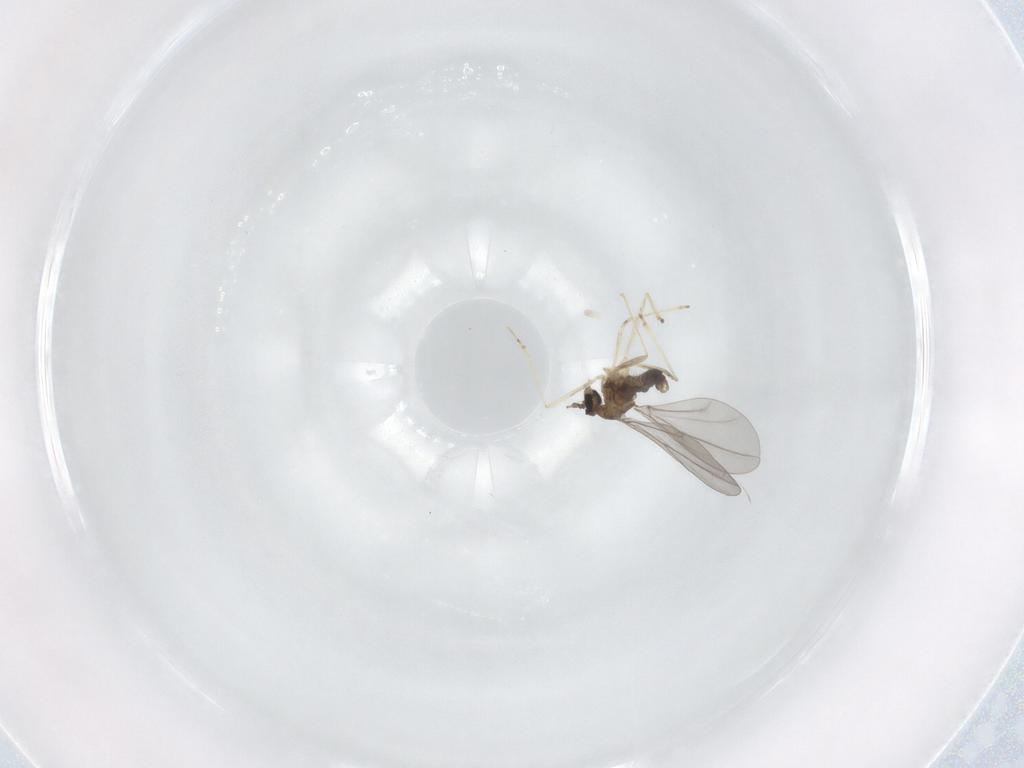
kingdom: Animalia
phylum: Arthropoda
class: Insecta
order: Diptera
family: Cecidomyiidae
